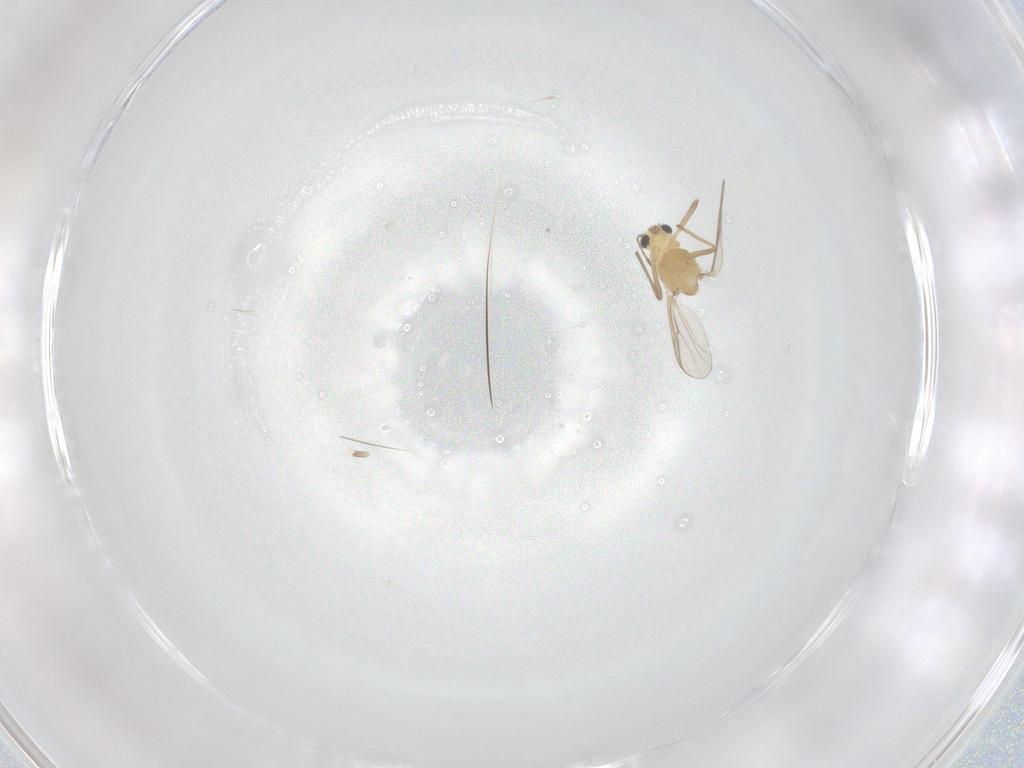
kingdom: Animalia
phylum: Arthropoda
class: Insecta
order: Diptera
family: Chironomidae
